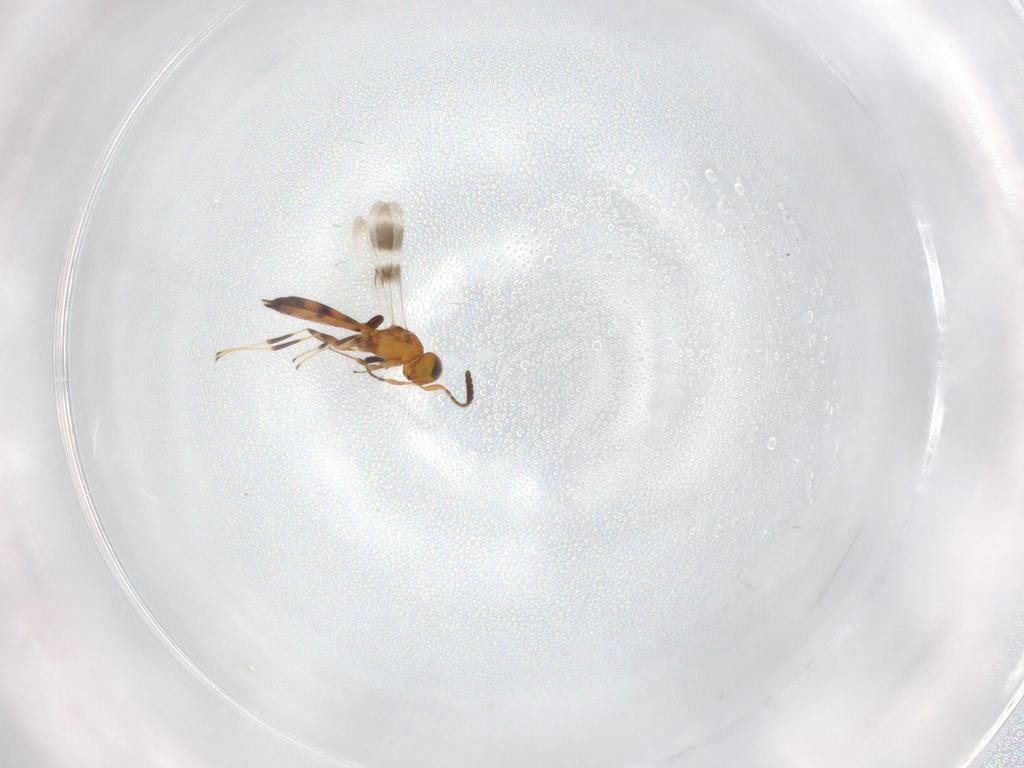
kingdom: Animalia
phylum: Arthropoda
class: Insecta
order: Hymenoptera
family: Scelionidae
